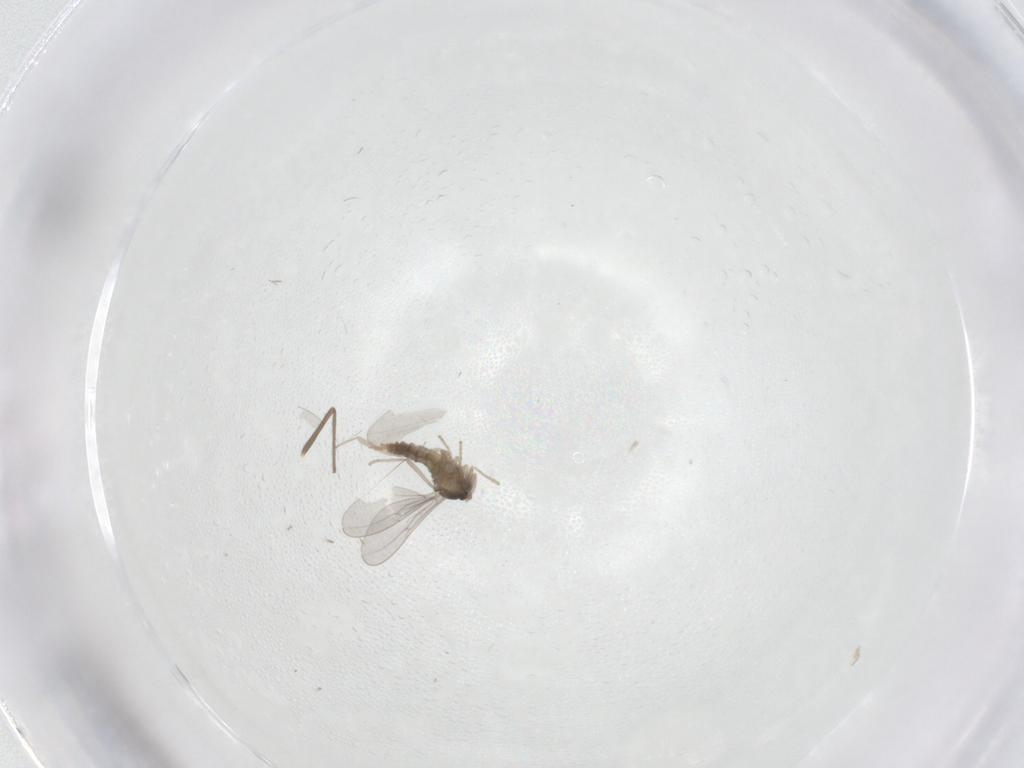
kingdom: Animalia
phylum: Arthropoda
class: Insecta
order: Diptera
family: Cecidomyiidae
